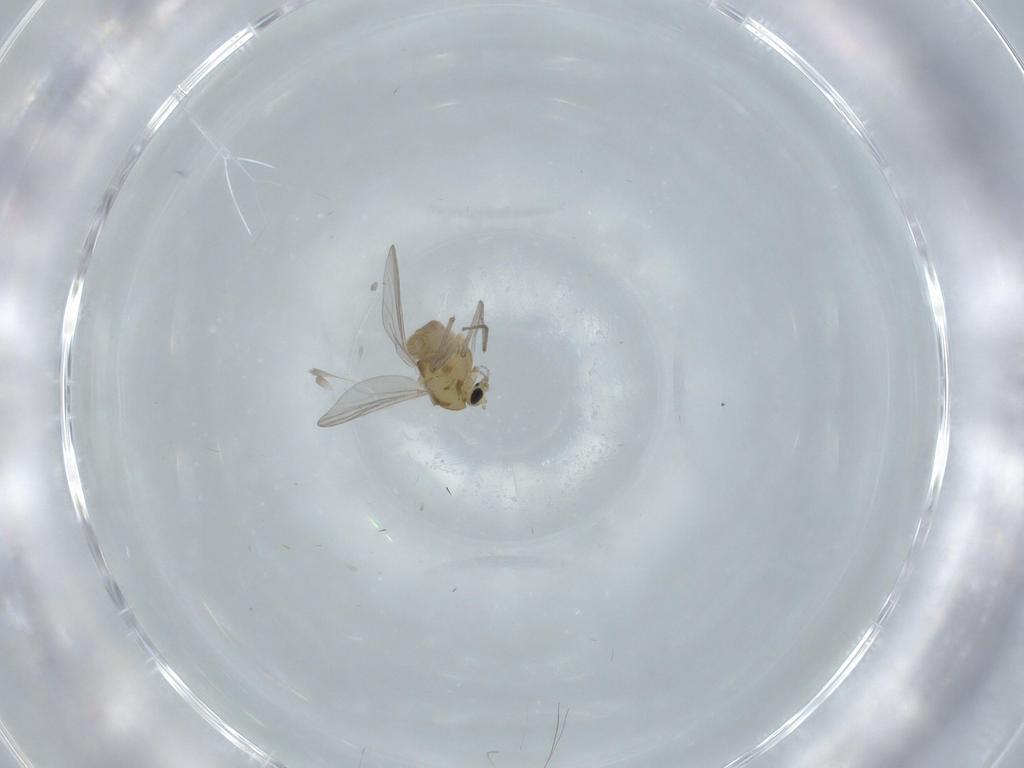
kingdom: Animalia
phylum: Arthropoda
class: Insecta
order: Diptera
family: Chironomidae
